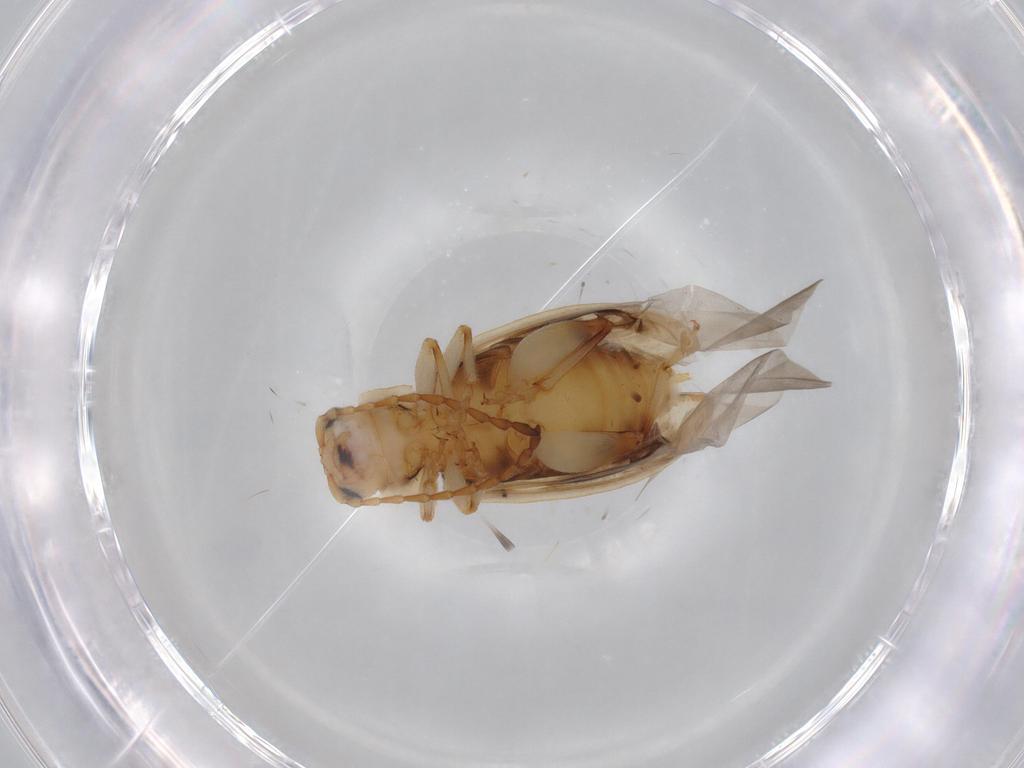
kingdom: Animalia
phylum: Arthropoda
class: Insecta
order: Coleoptera
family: Chrysomelidae
